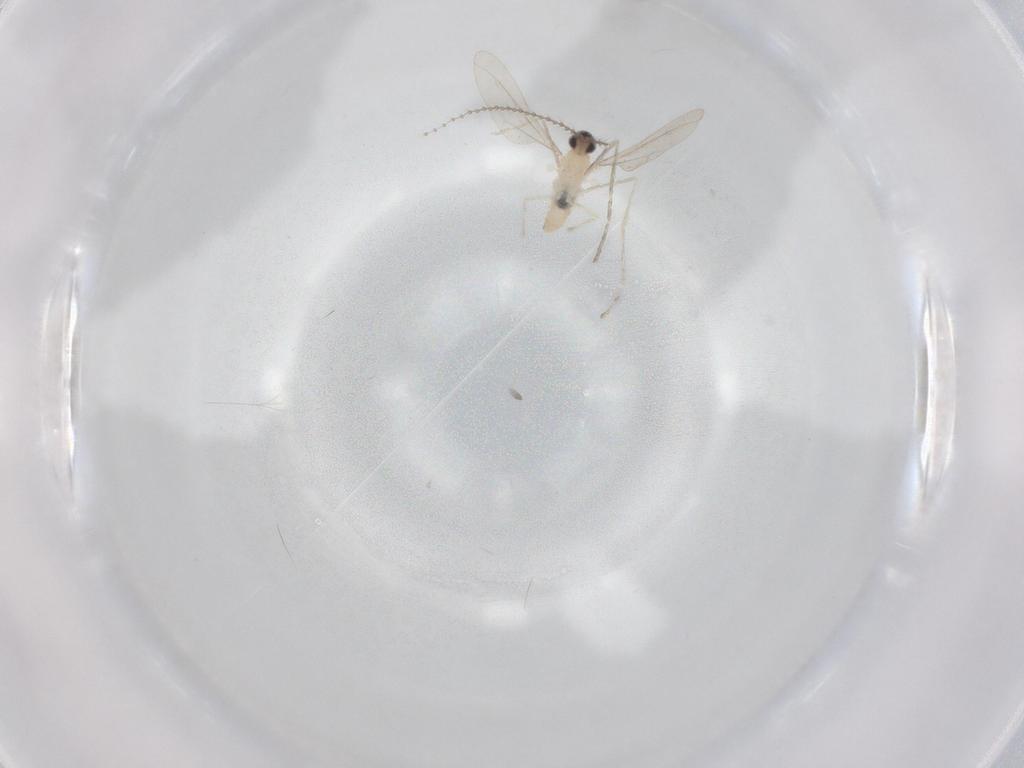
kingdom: Animalia
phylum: Arthropoda
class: Insecta
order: Diptera
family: Cecidomyiidae
